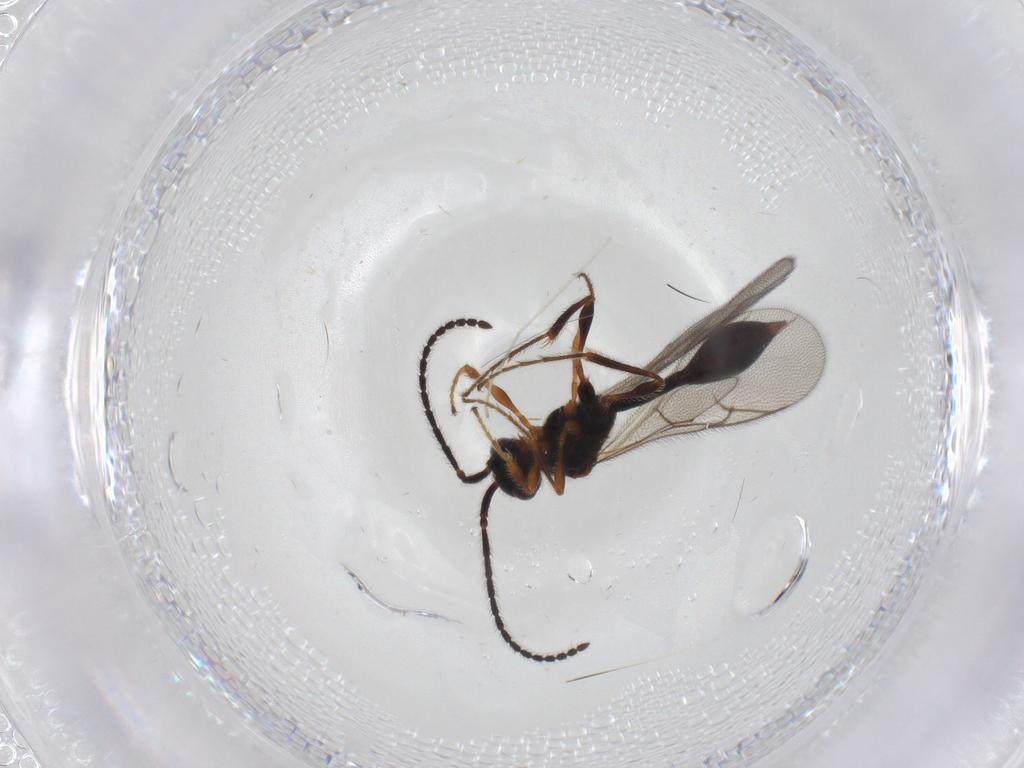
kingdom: Animalia
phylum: Arthropoda
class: Insecta
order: Hymenoptera
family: Diapriidae
